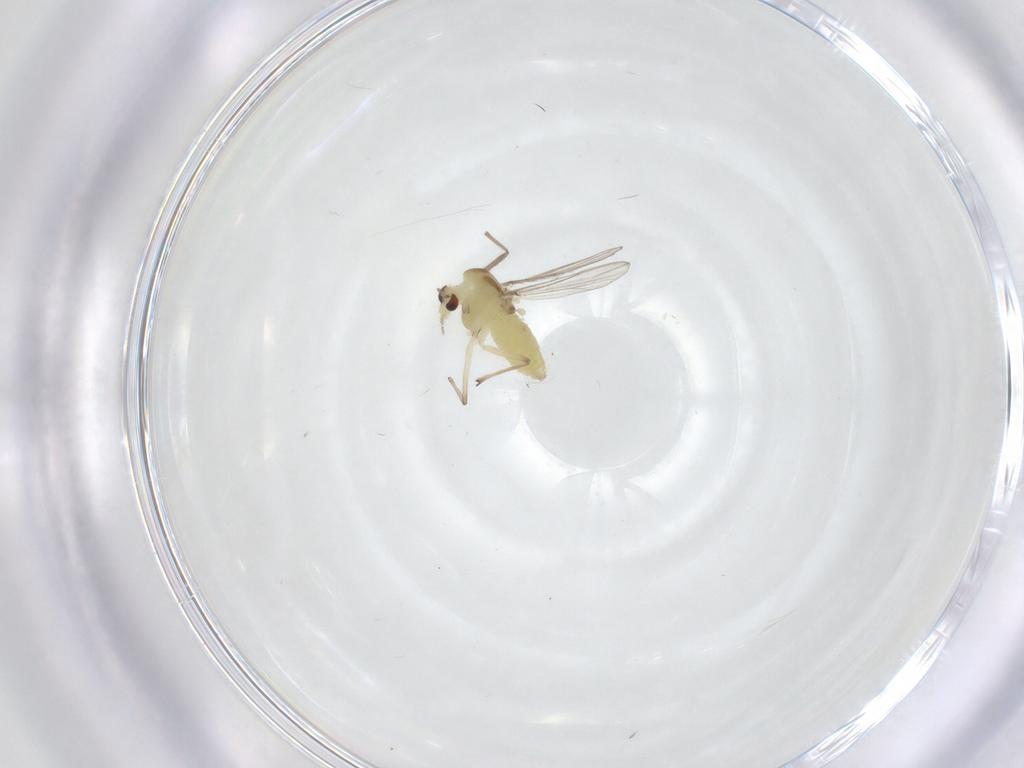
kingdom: Animalia
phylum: Arthropoda
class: Insecta
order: Diptera
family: Chironomidae
